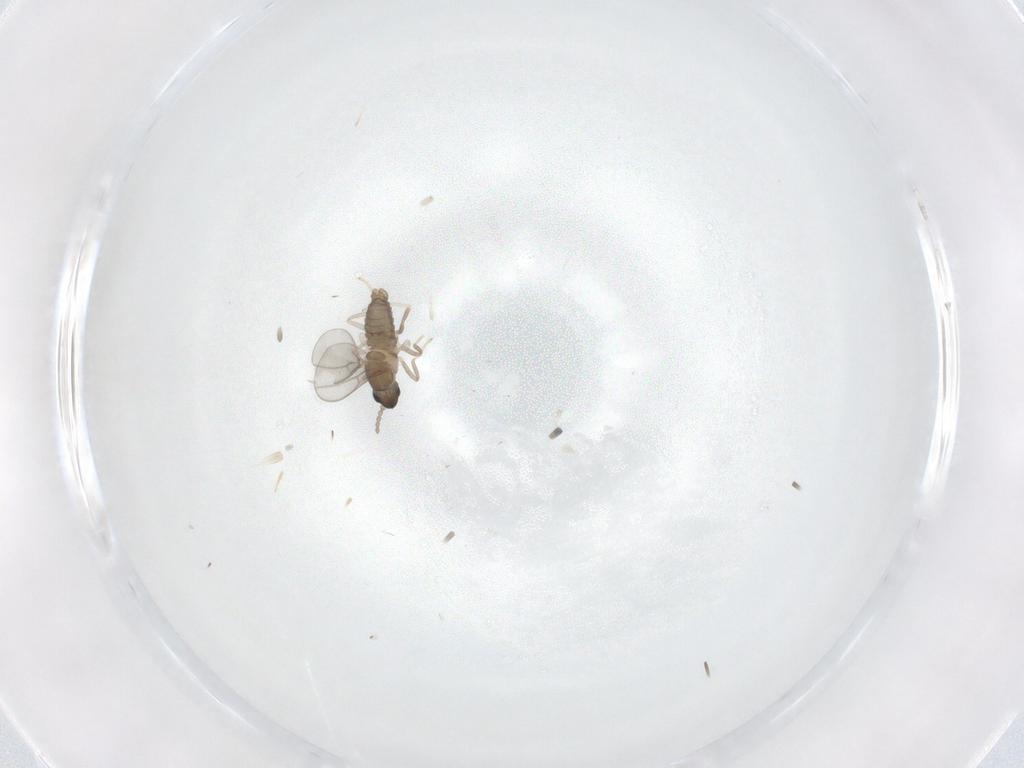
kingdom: Animalia
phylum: Arthropoda
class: Insecta
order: Diptera
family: Cecidomyiidae
